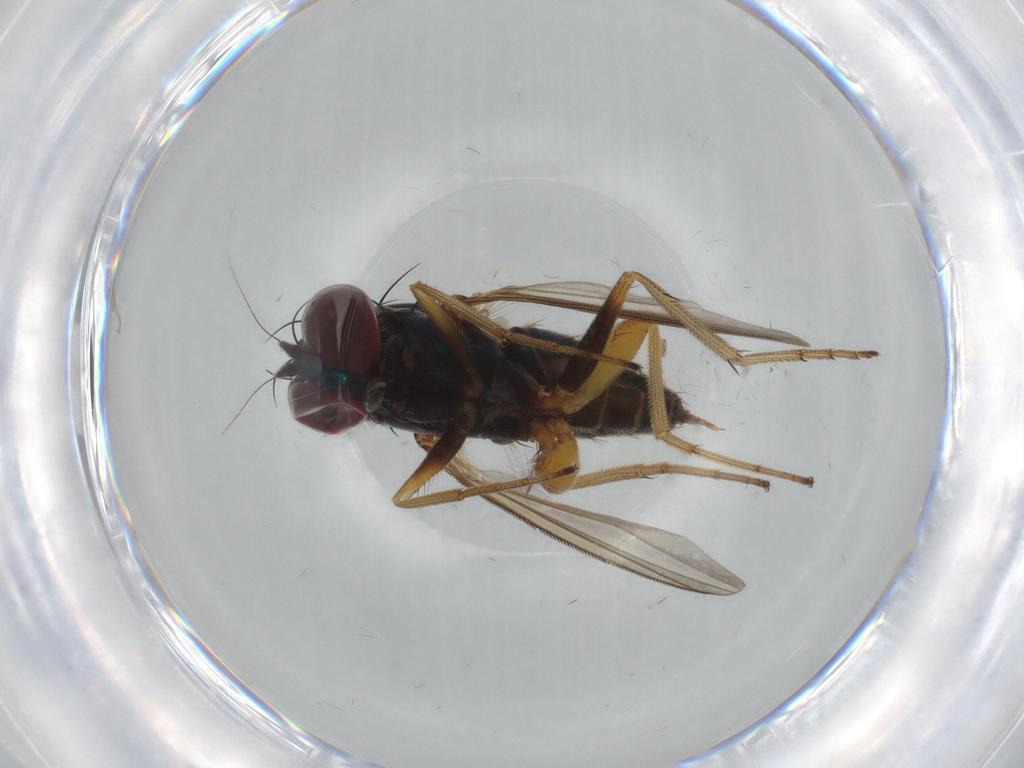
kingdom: Animalia
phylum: Arthropoda
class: Insecta
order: Diptera
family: Dolichopodidae
